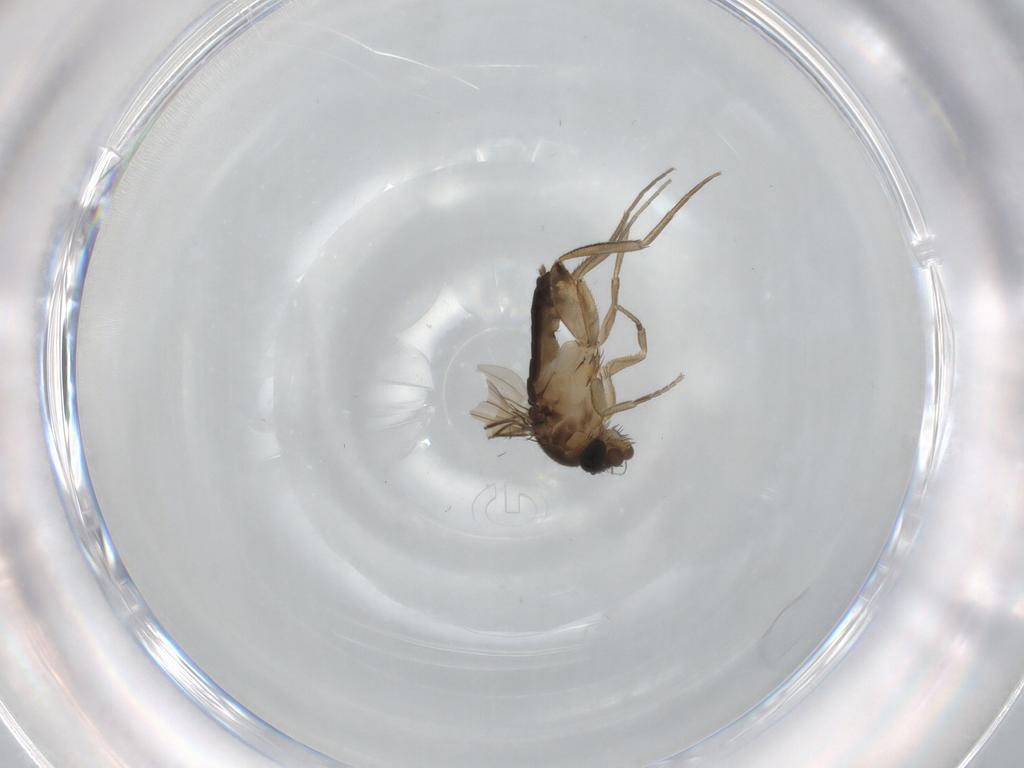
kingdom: Animalia
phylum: Arthropoda
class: Insecta
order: Diptera
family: Phoridae
